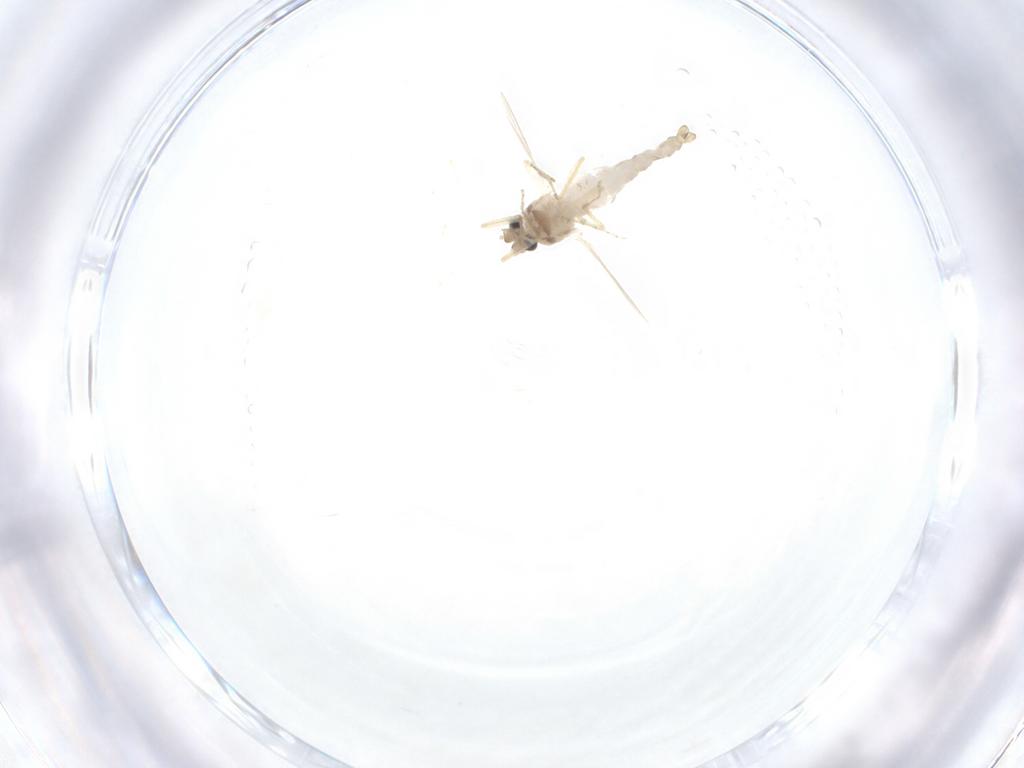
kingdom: Animalia
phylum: Arthropoda
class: Insecta
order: Diptera
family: Ceratopogonidae
